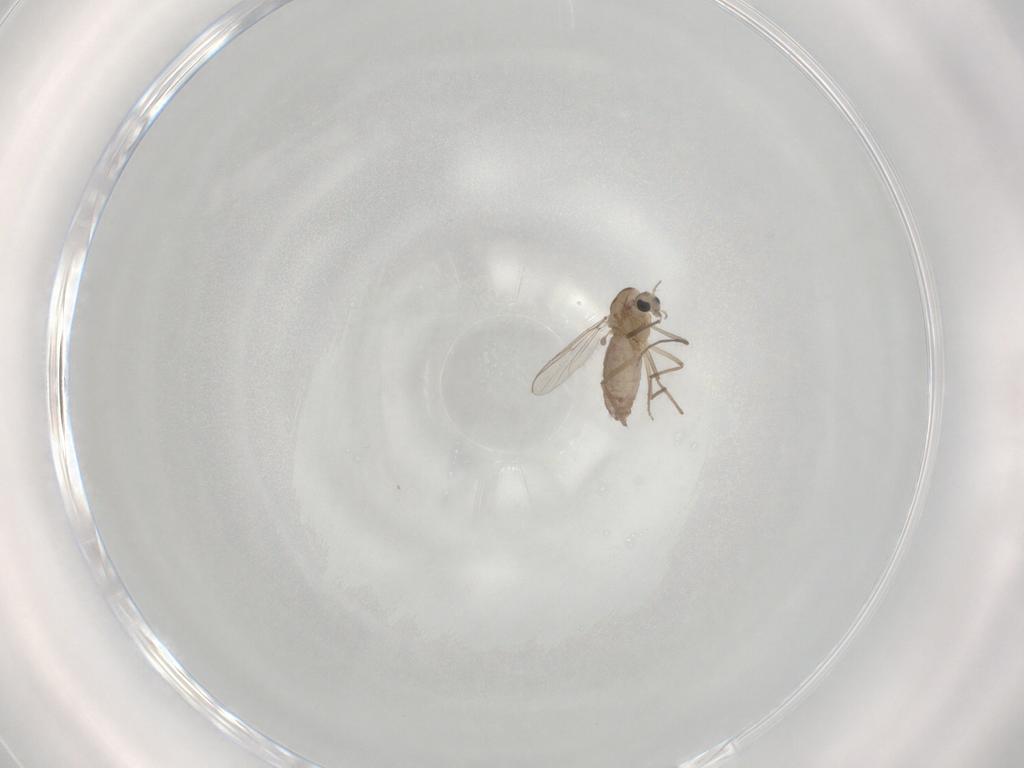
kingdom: Animalia
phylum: Arthropoda
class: Insecta
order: Diptera
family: Chironomidae
